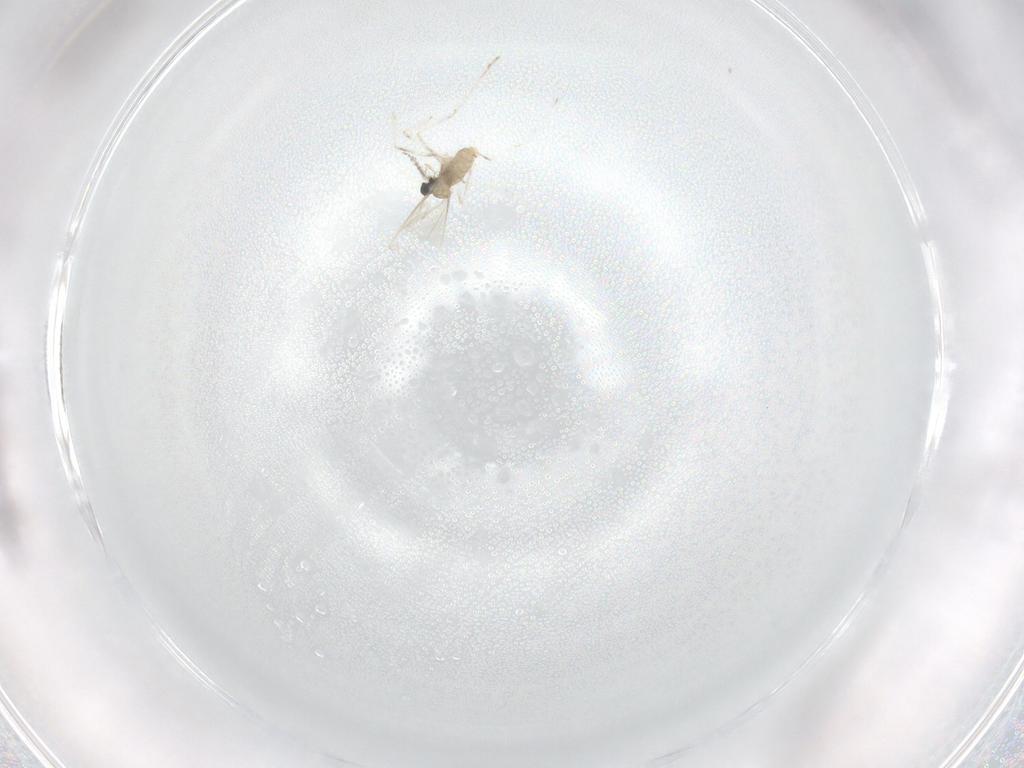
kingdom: Animalia
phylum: Arthropoda
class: Insecta
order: Diptera
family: Cecidomyiidae
